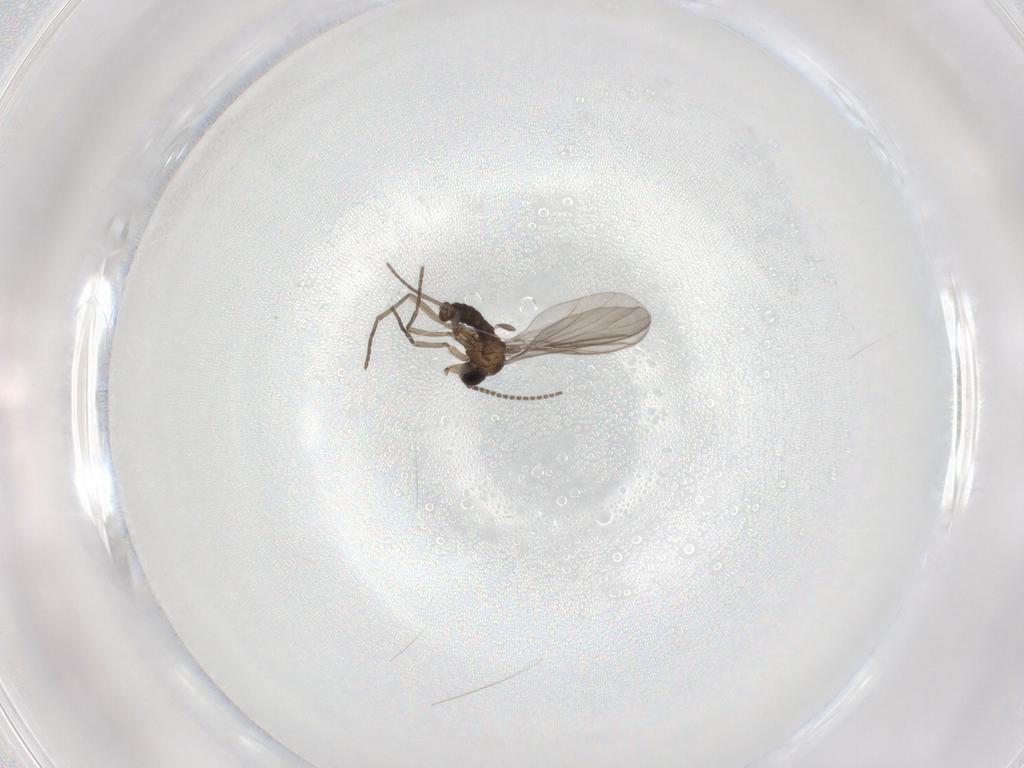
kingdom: Animalia
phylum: Arthropoda
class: Insecta
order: Diptera
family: Pipunculidae
